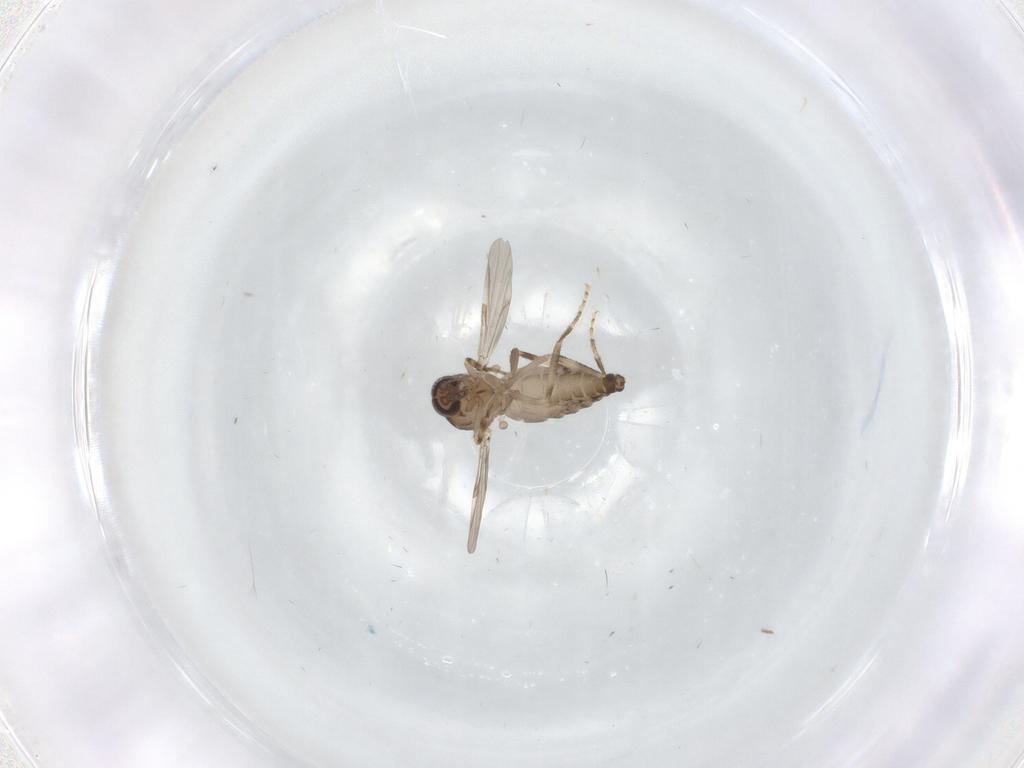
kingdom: Animalia
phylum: Arthropoda
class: Insecta
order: Diptera
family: Ceratopogonidae
